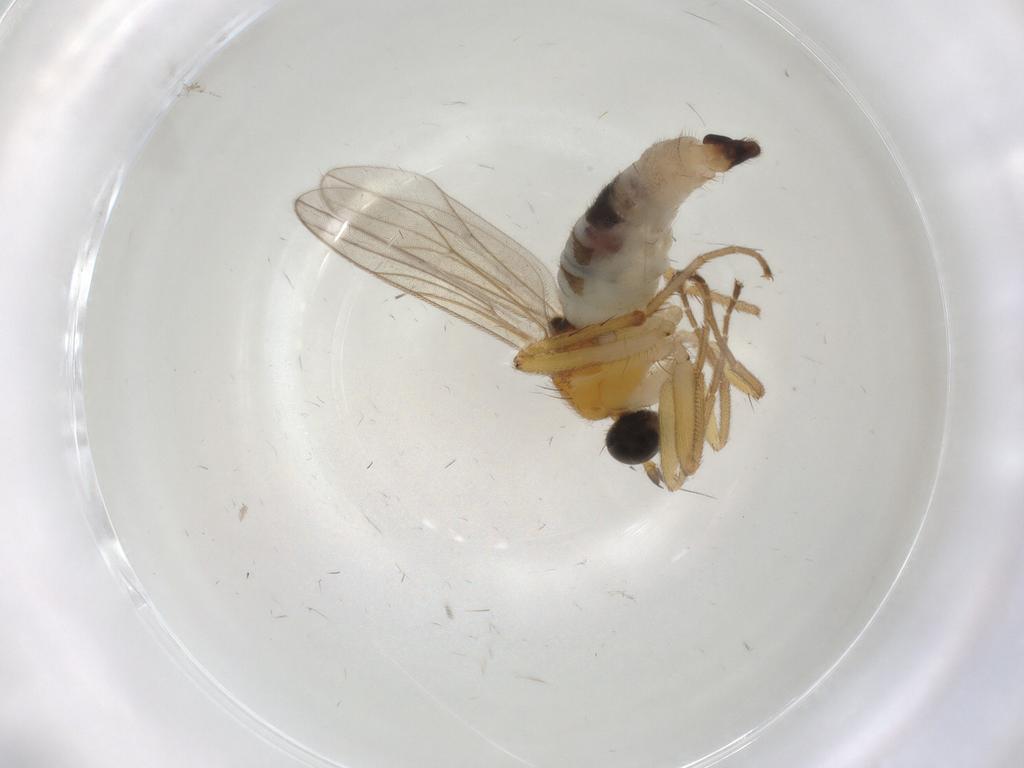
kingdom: Animalia
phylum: Arthropoda
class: Insecta
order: Diptera
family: Hybotidae
